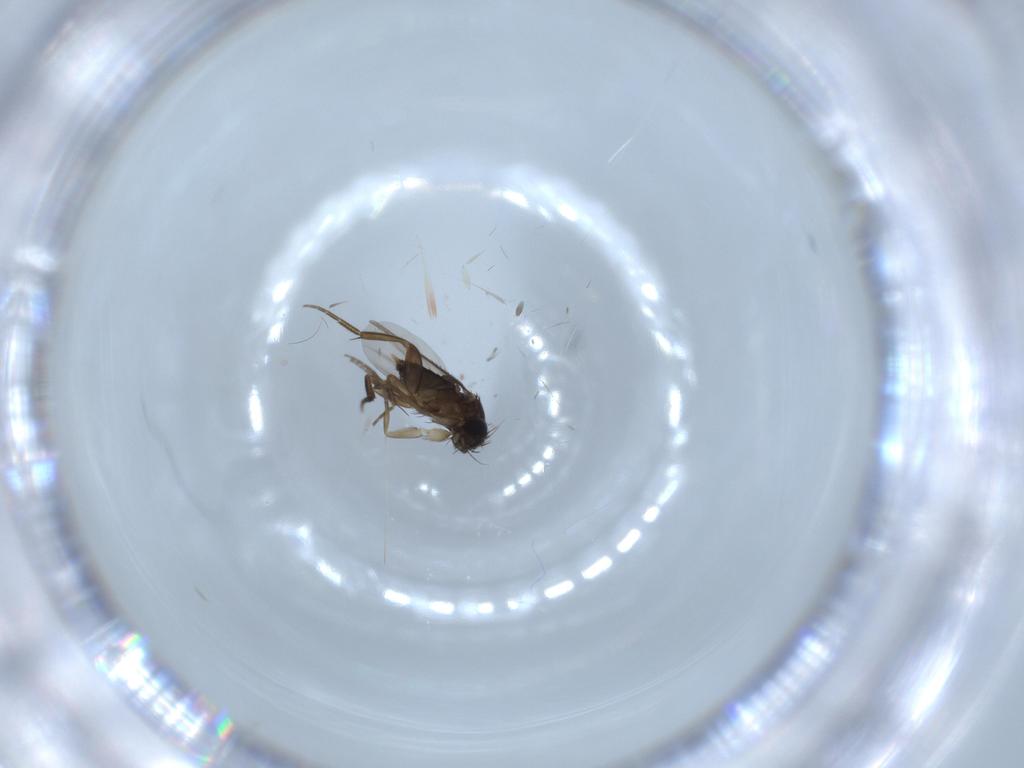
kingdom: Animalia
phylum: Arthropoda
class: Insecta
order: Diptera
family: Phoridae
